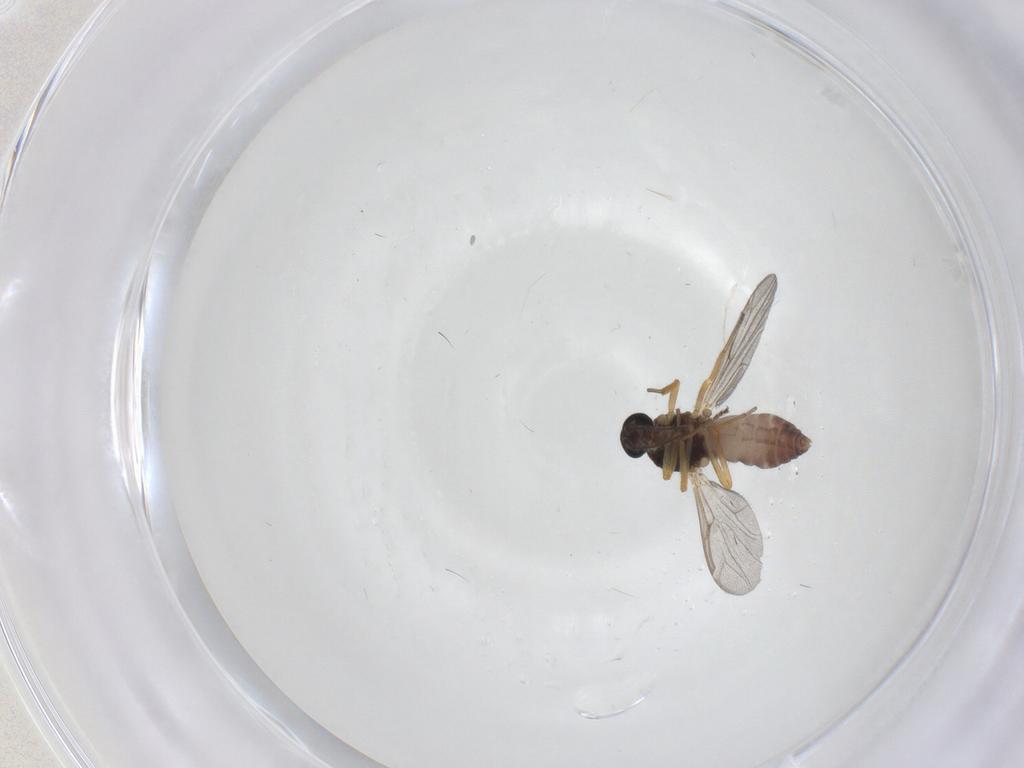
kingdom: Animalia
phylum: Arthropoda
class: Insecta
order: Diptera
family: Ceratopogonidae
